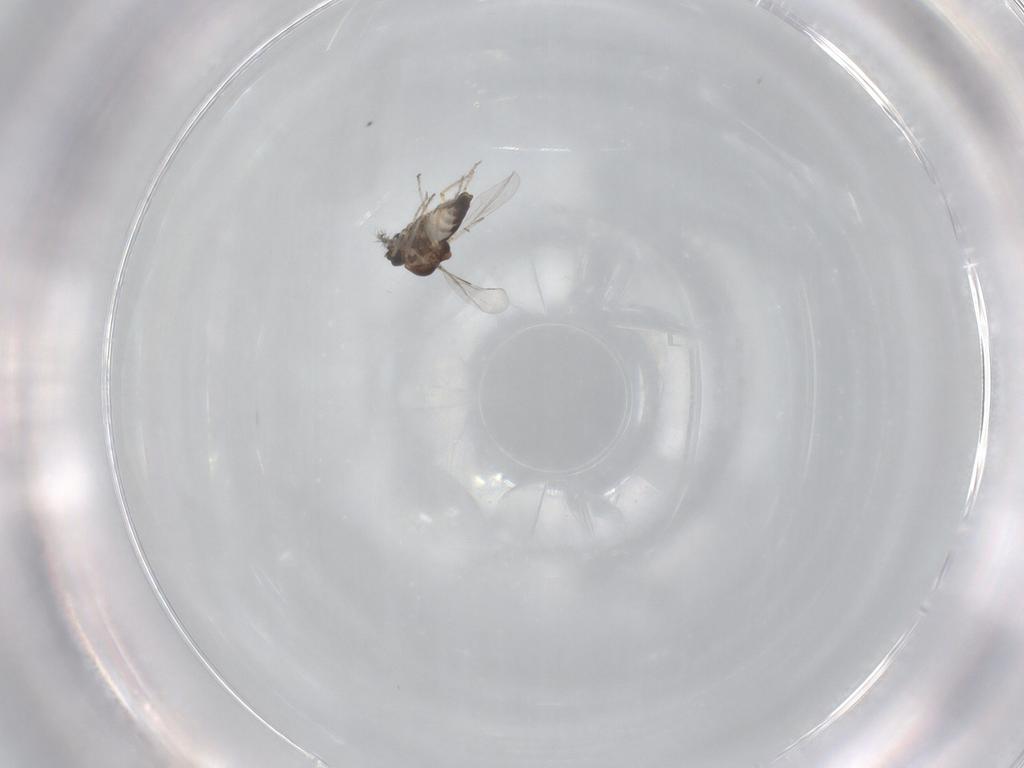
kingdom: Animalia
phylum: Arthropoda
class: Insecta
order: Diptera
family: Ceratopogonidae
